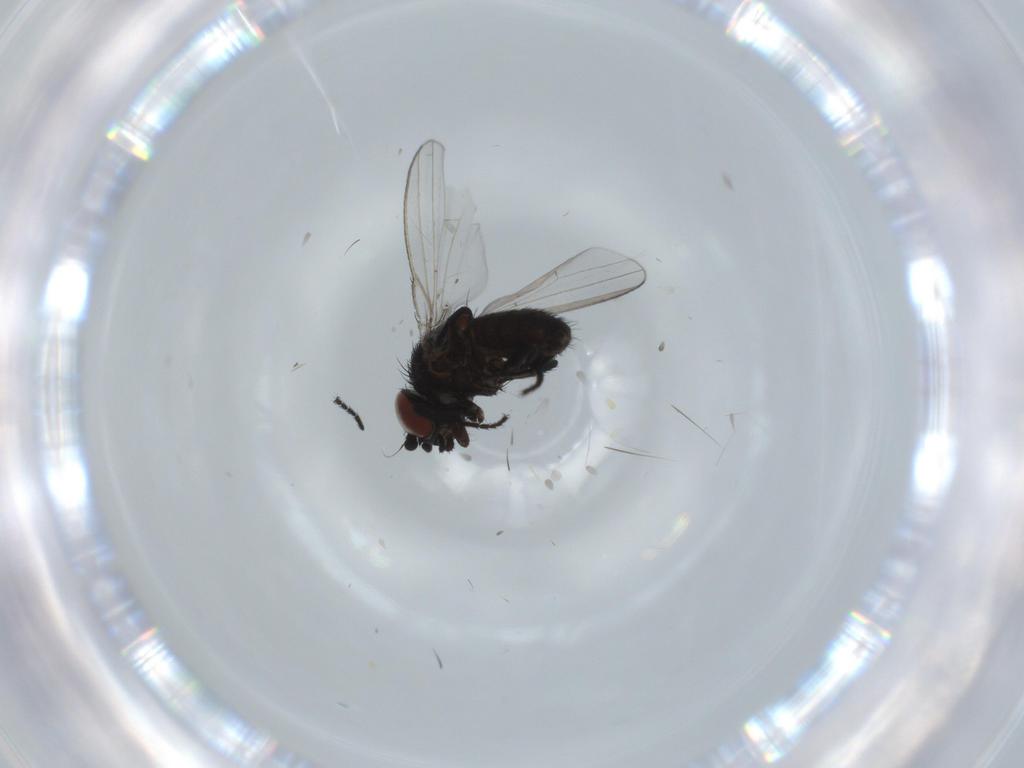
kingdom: Animalia
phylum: Arthropoda
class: Insecta
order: Diptera
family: Milichiidae
